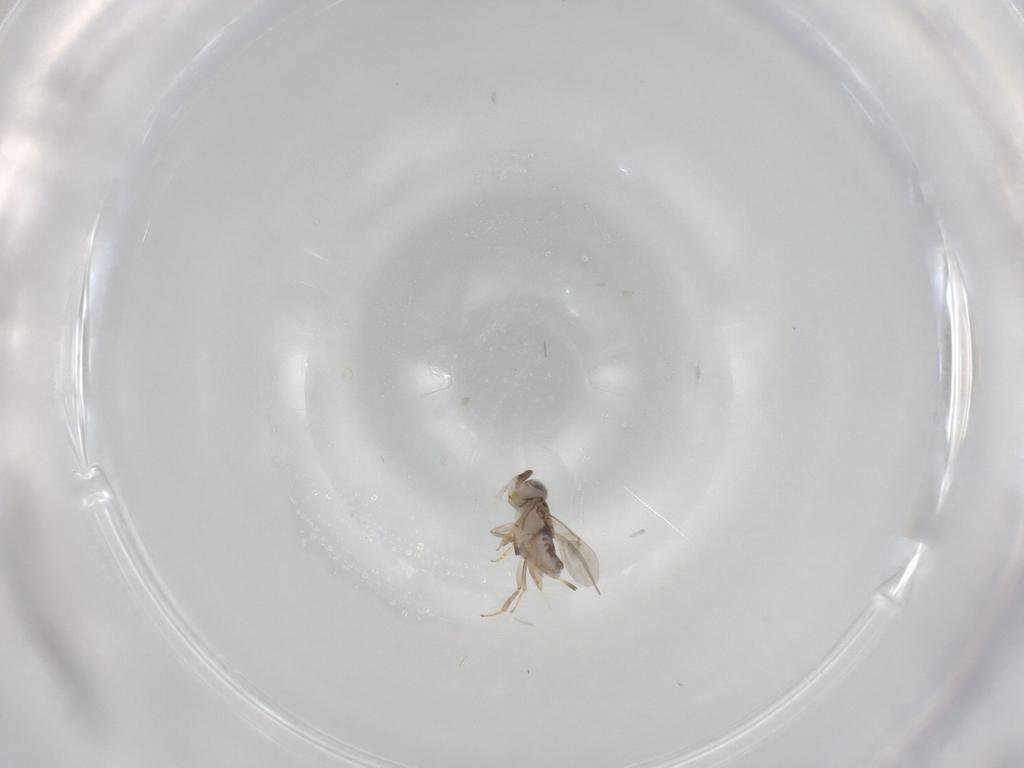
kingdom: Animalia
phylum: Arthropoda
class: Insecta
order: Hymenoptera
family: Encyrtidae
